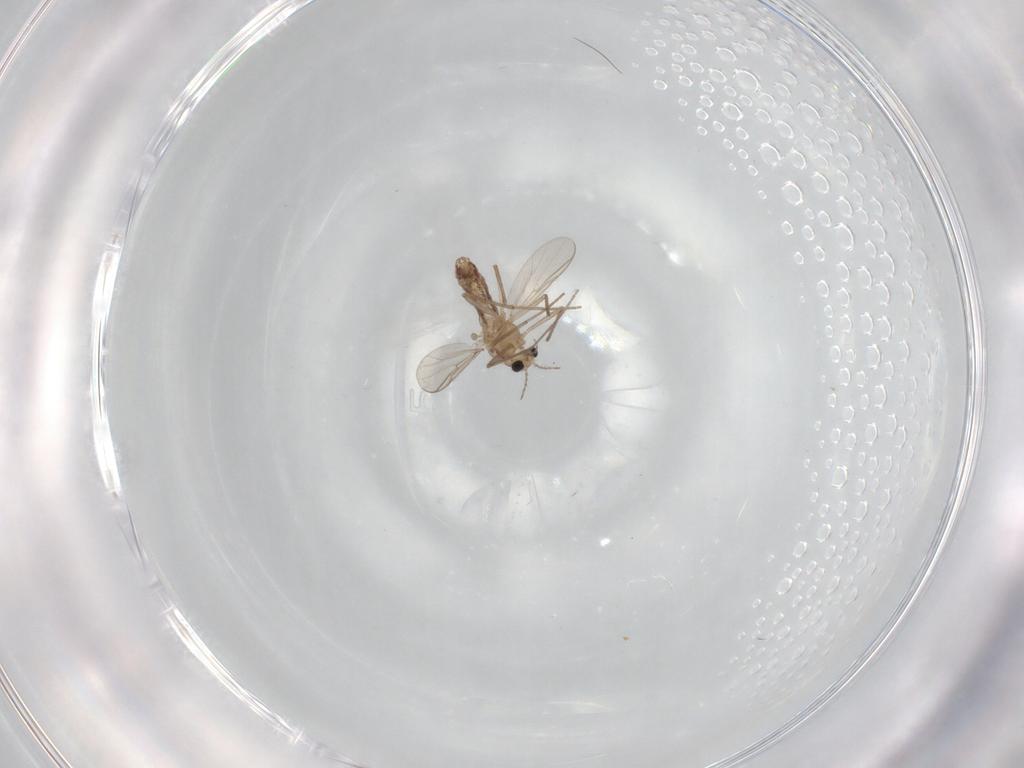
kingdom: Animalia
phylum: Arthropoda
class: Insecta
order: Diptera
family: Chironomidae
